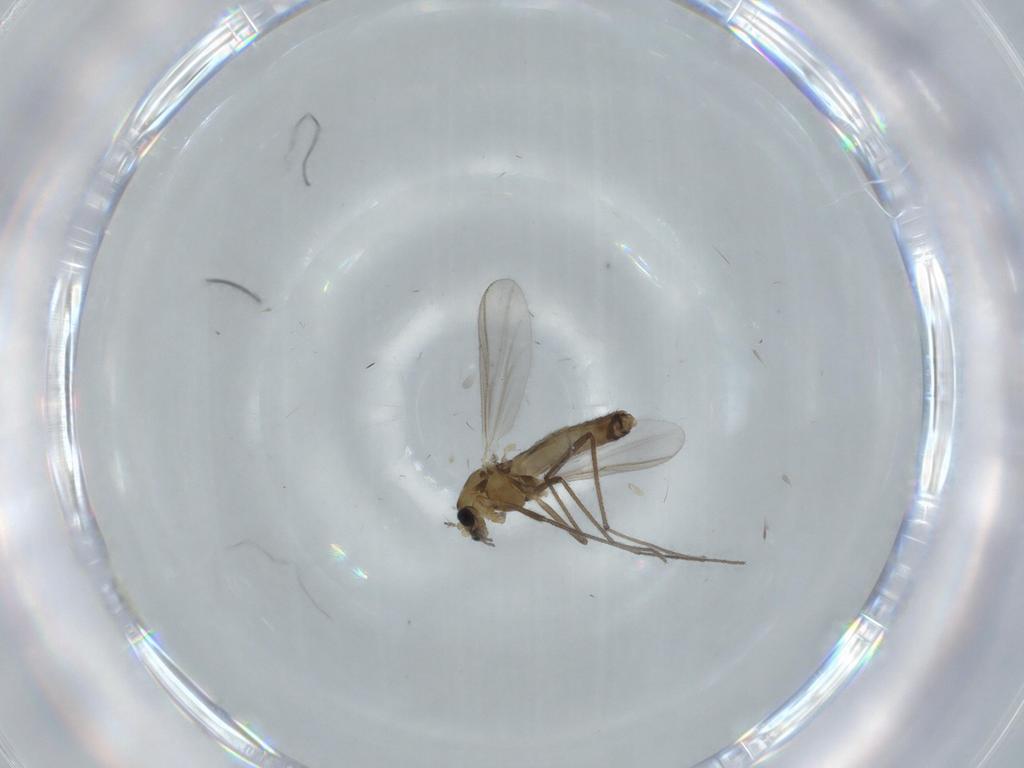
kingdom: Animalia
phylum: Arthropoda
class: Insecta
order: Diptera
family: Chironomidae
